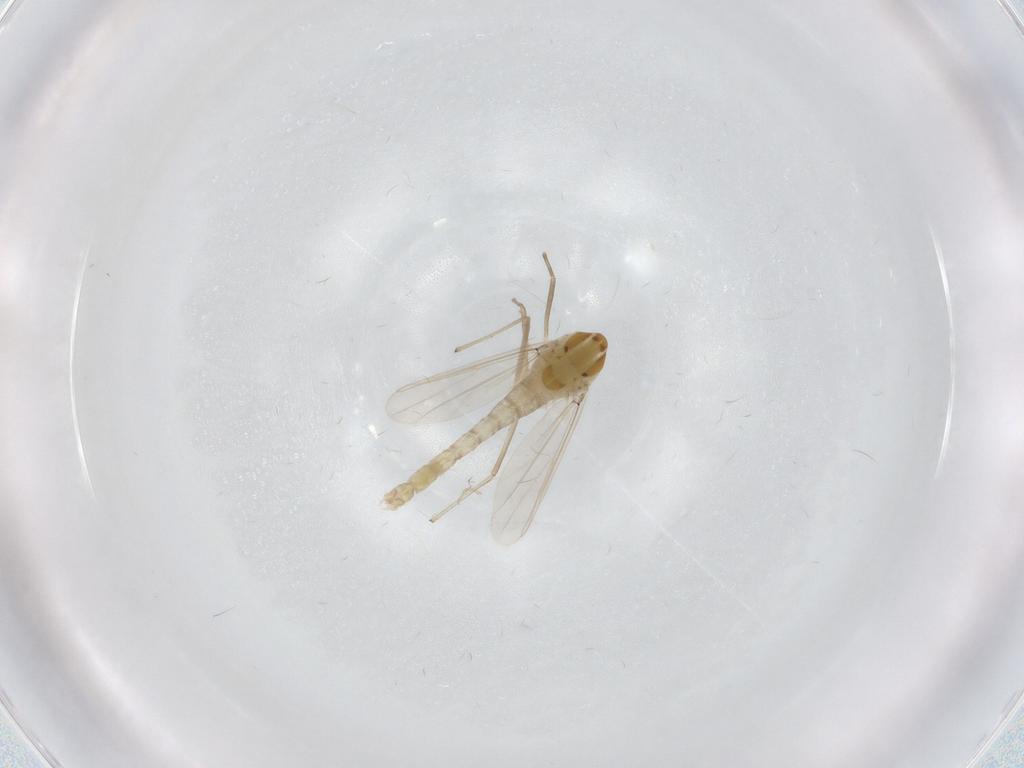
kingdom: Animalia
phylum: Arthropoda
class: Insecta
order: Diptera
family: Chironomidae
